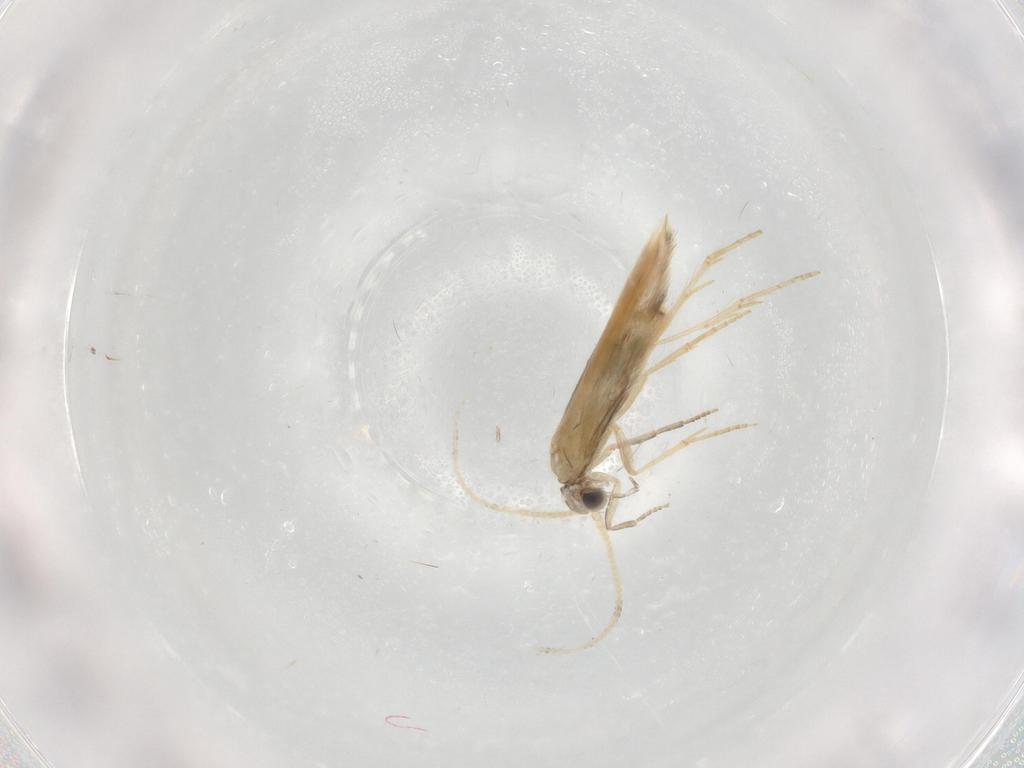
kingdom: Animalia
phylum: Arthropoda
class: Insecta
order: Trichoptera
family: Hydroptilidae
